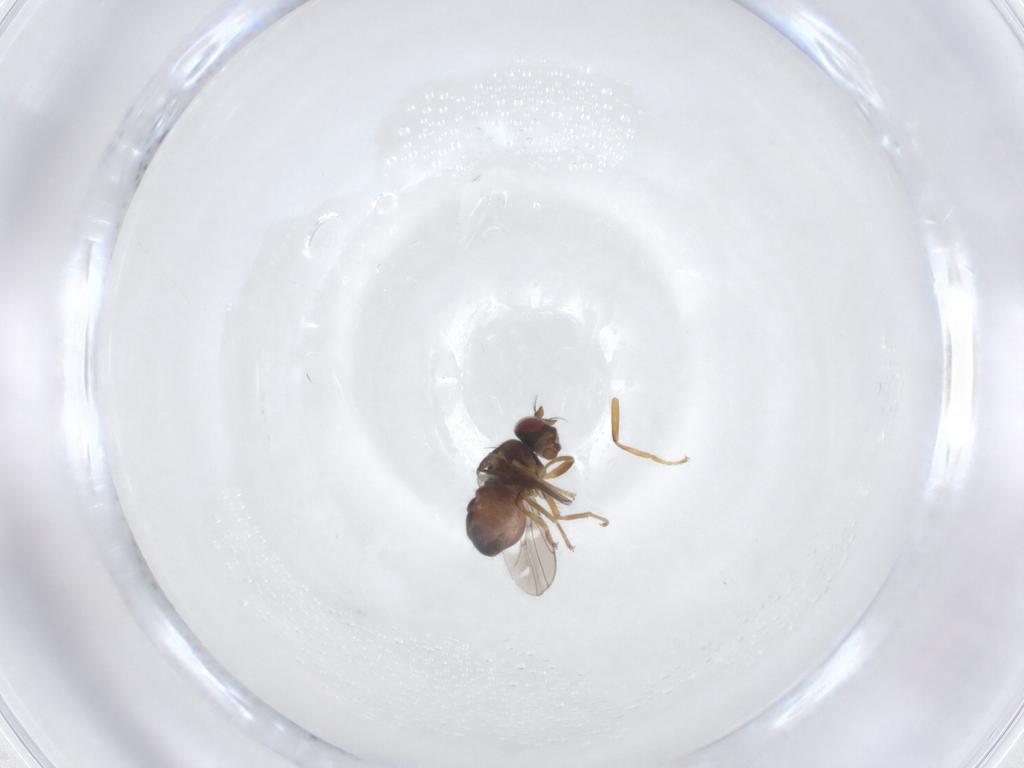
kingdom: Animalia
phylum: Arthropoda
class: Insecta
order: Diptera
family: Ephydridae
